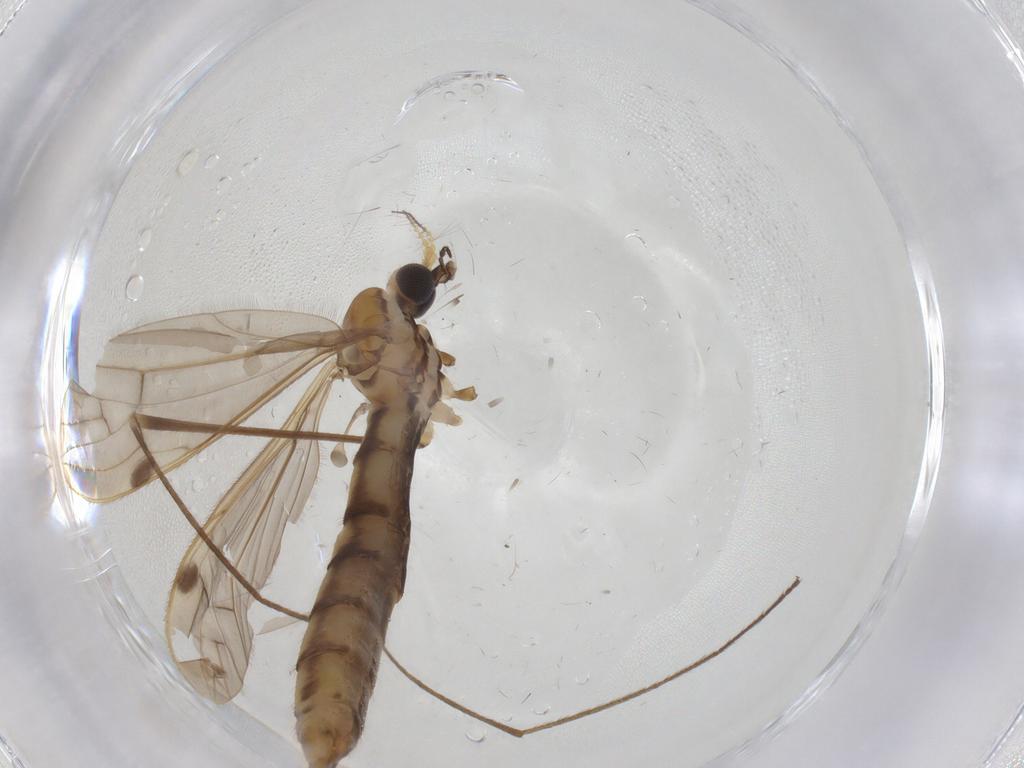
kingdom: Animalia
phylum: Arthropoda
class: Insecta
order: Diptera
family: Limoniidae
